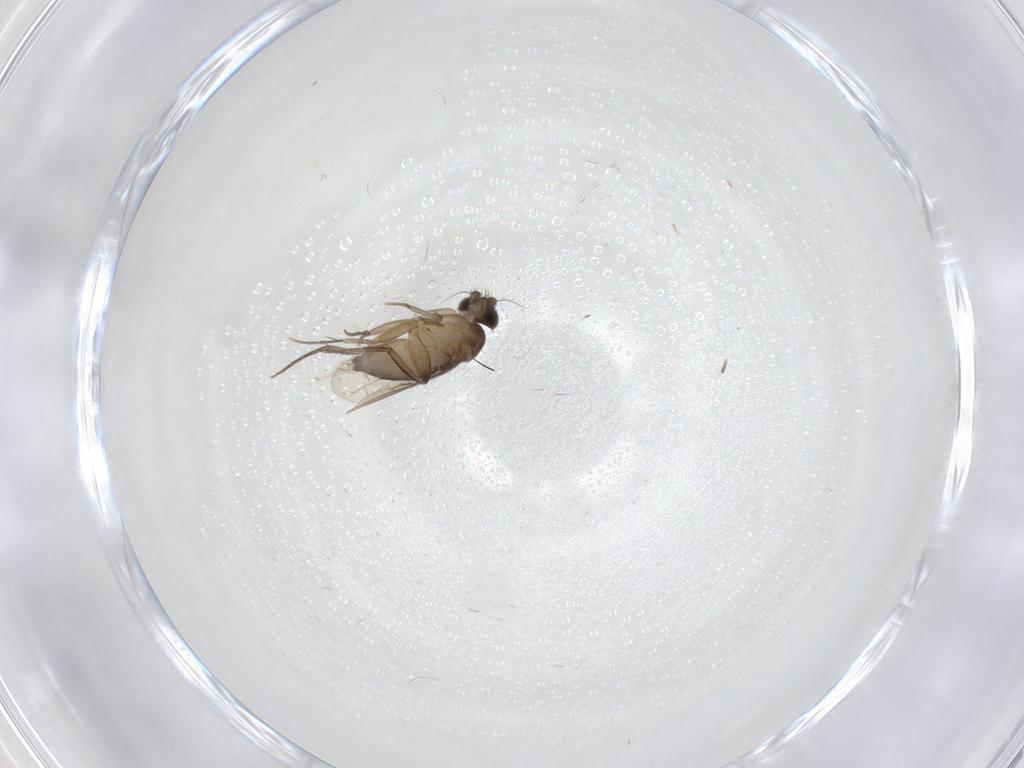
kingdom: Animalia
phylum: Arthropoda
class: Insecta
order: Diptera
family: Phoridae
